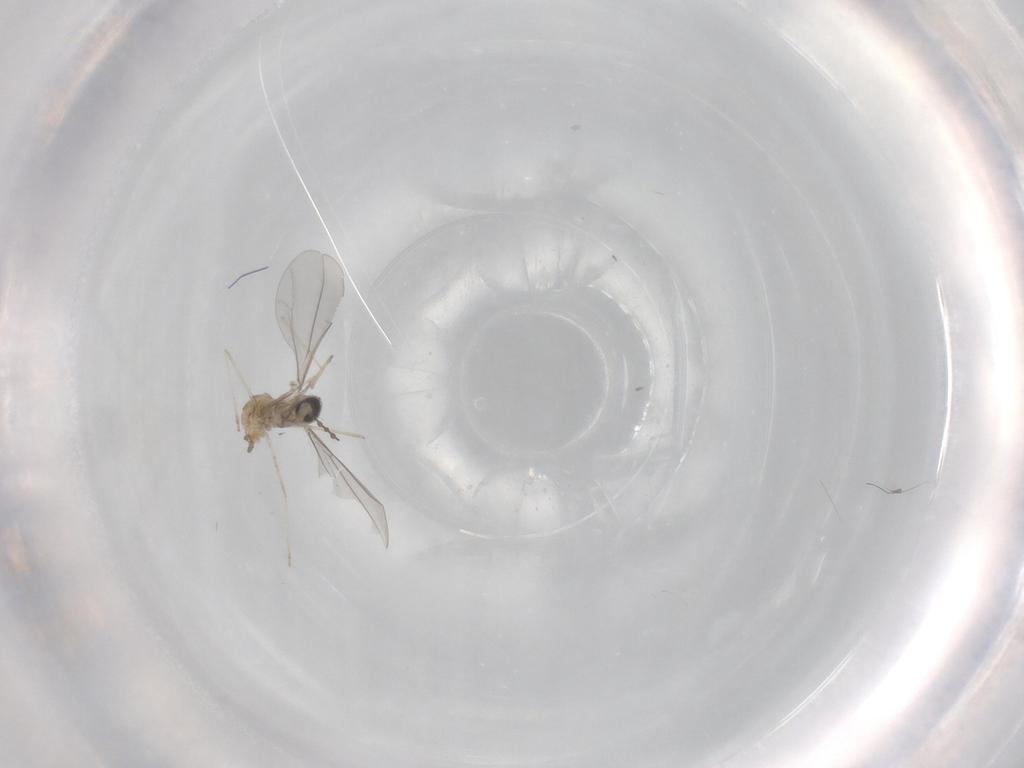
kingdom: Animalia
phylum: Arthropoda
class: Insecta
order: Diptera
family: Cecidomyiidae
